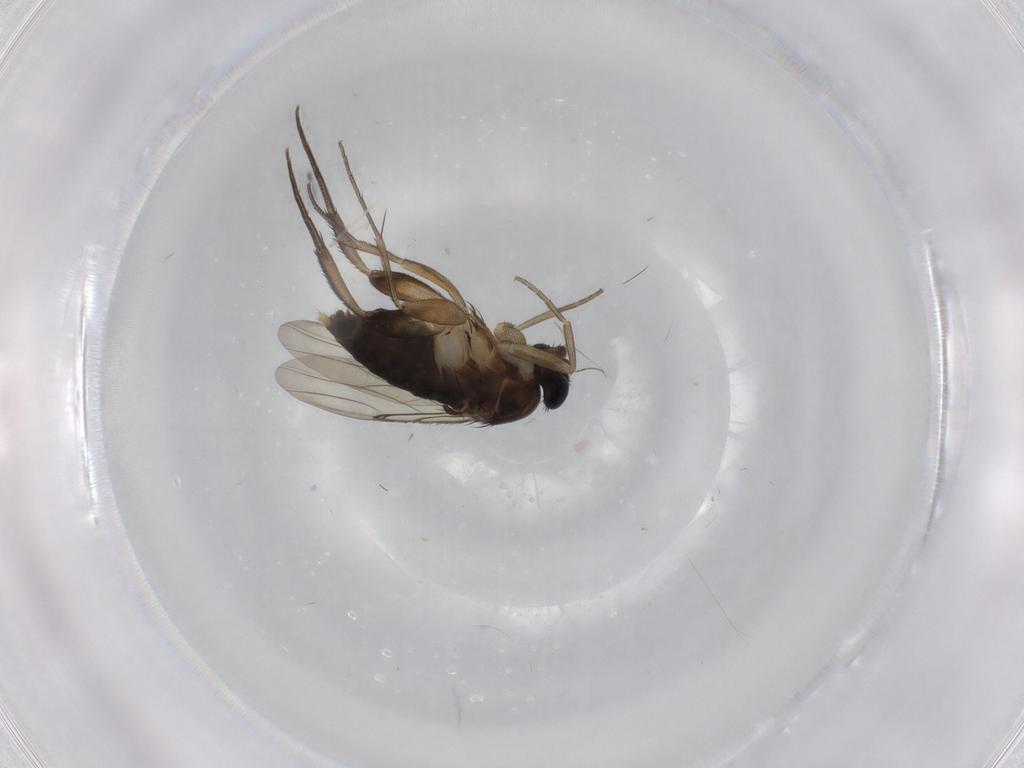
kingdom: Animalia
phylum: Arthropoda
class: Insecta
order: Diptera
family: Phoridae
